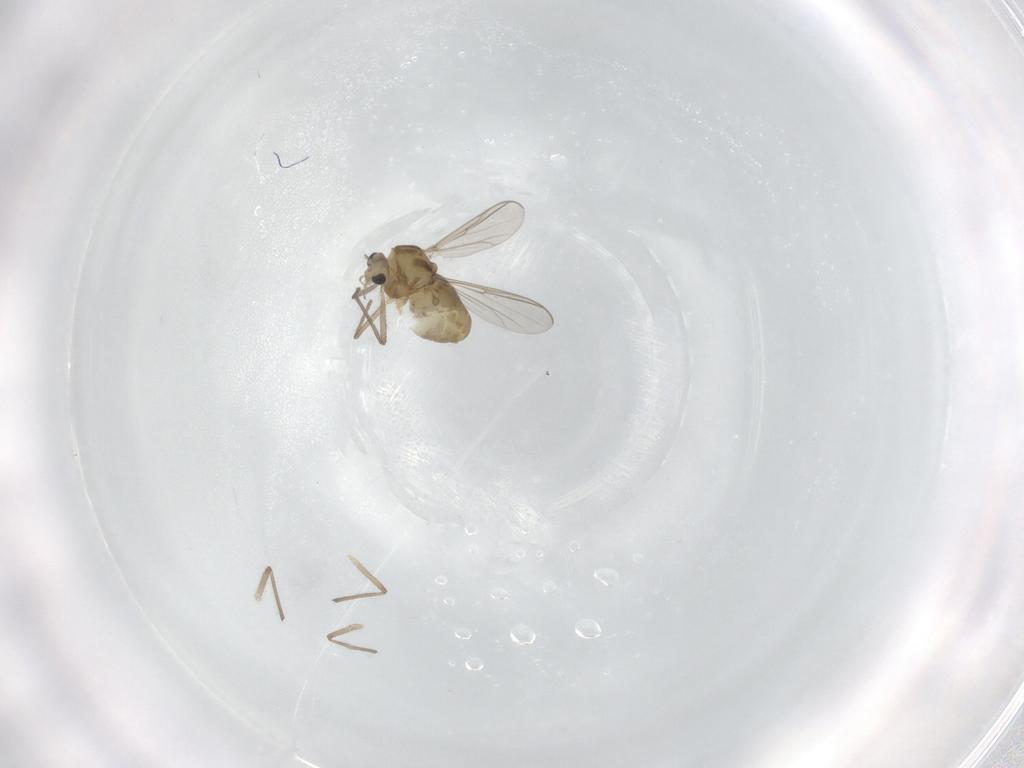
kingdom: Animalia
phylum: Arthropoda
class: Insecta
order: Diptera
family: Chironomidae
